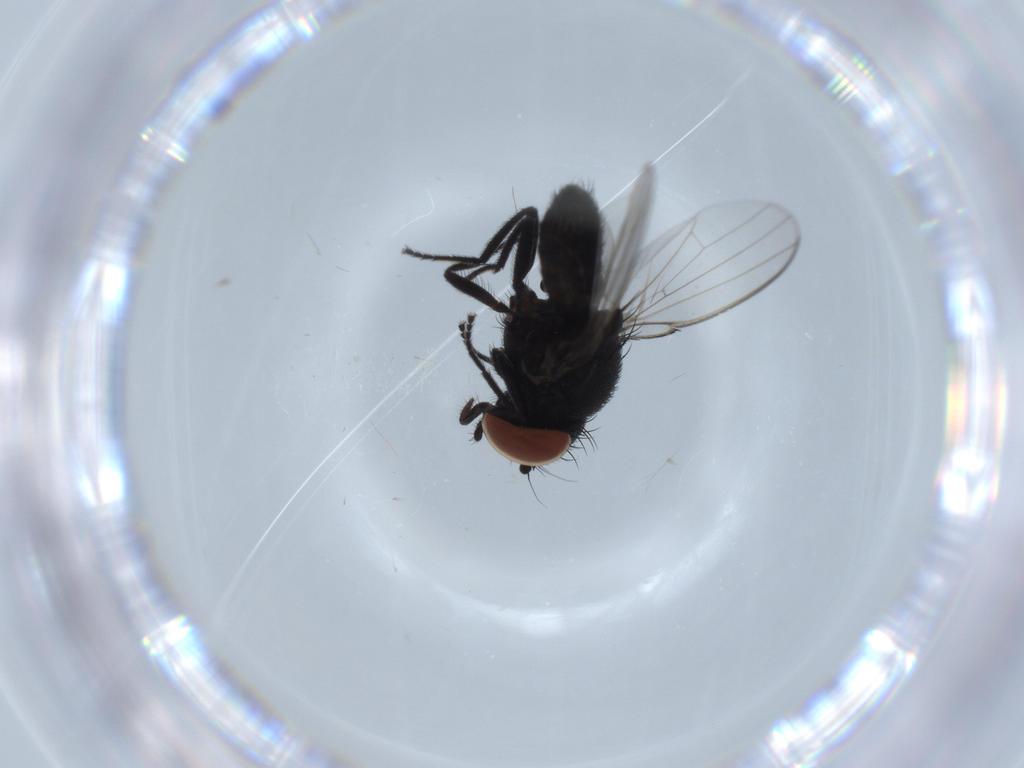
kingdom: Animalia
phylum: Arthropoda
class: Insecta
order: Diptera
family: Milichiidae
